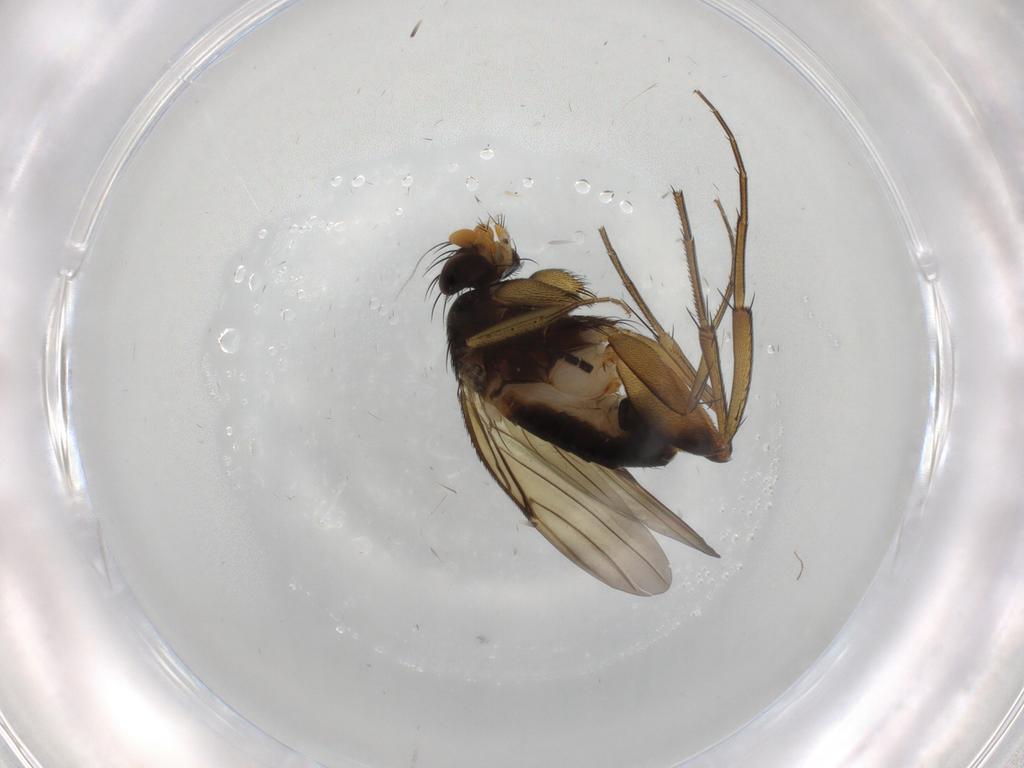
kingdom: Animalia
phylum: Arthropoda
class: Insecta
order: Diptera
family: Phoridae
